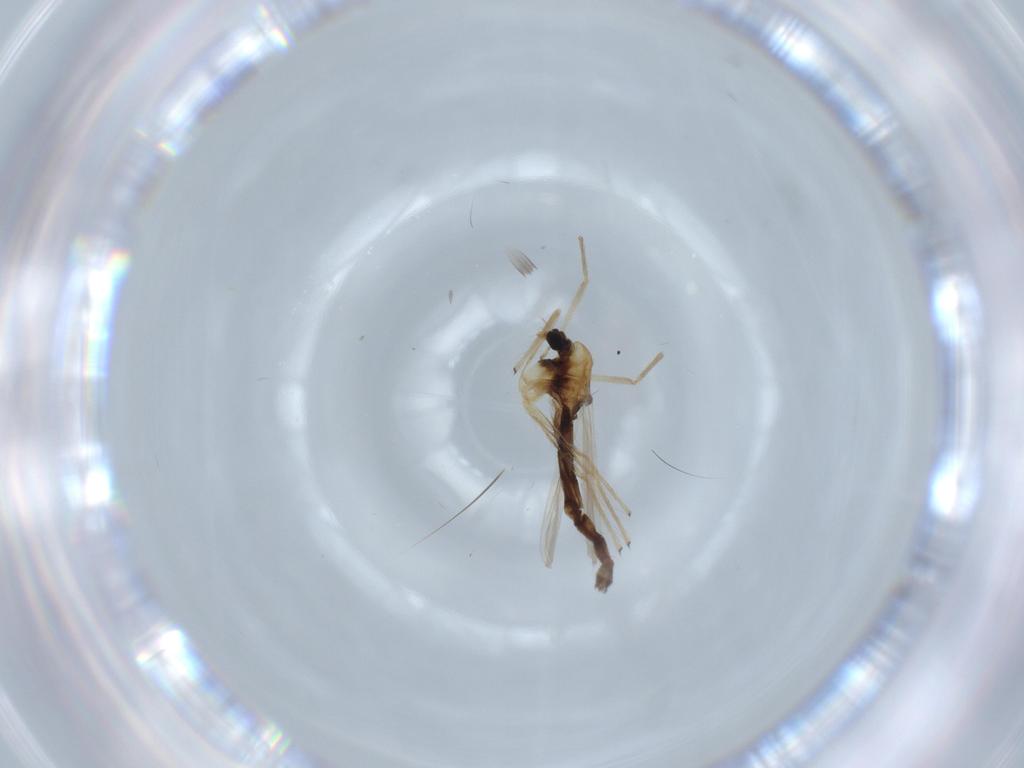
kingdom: Animalia
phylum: Arthropoda
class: Insecta
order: Diptera
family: Chironomidae
